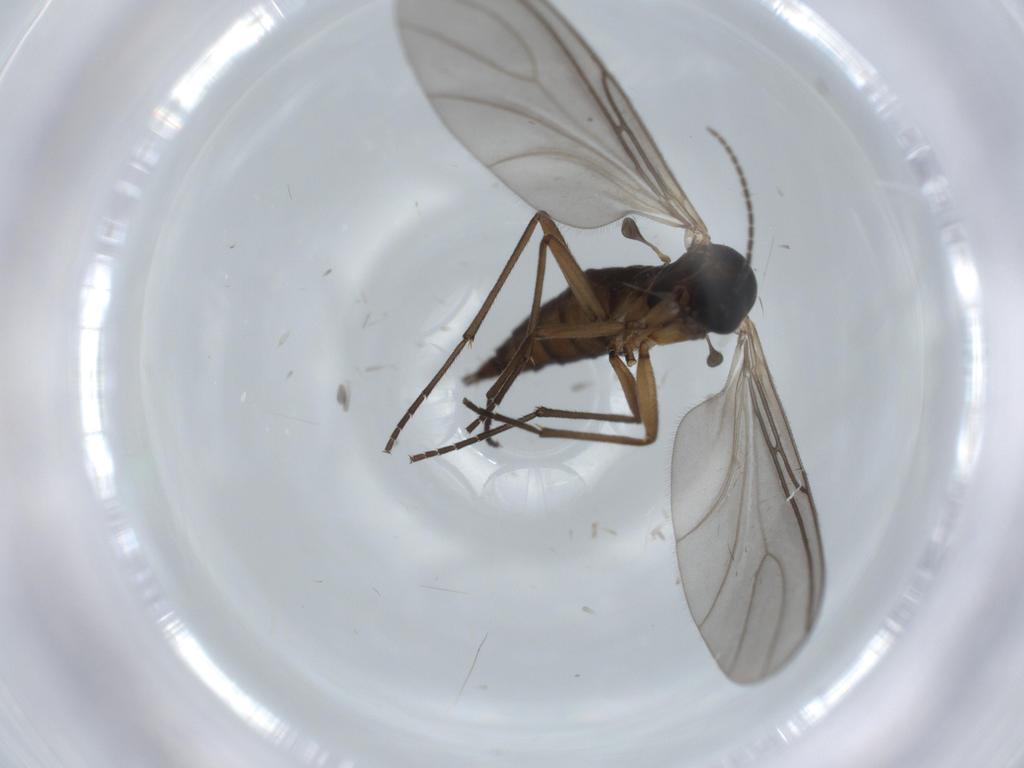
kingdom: Animalia
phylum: Arthropoda
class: Insecta
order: Diptera
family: Sciaridae
